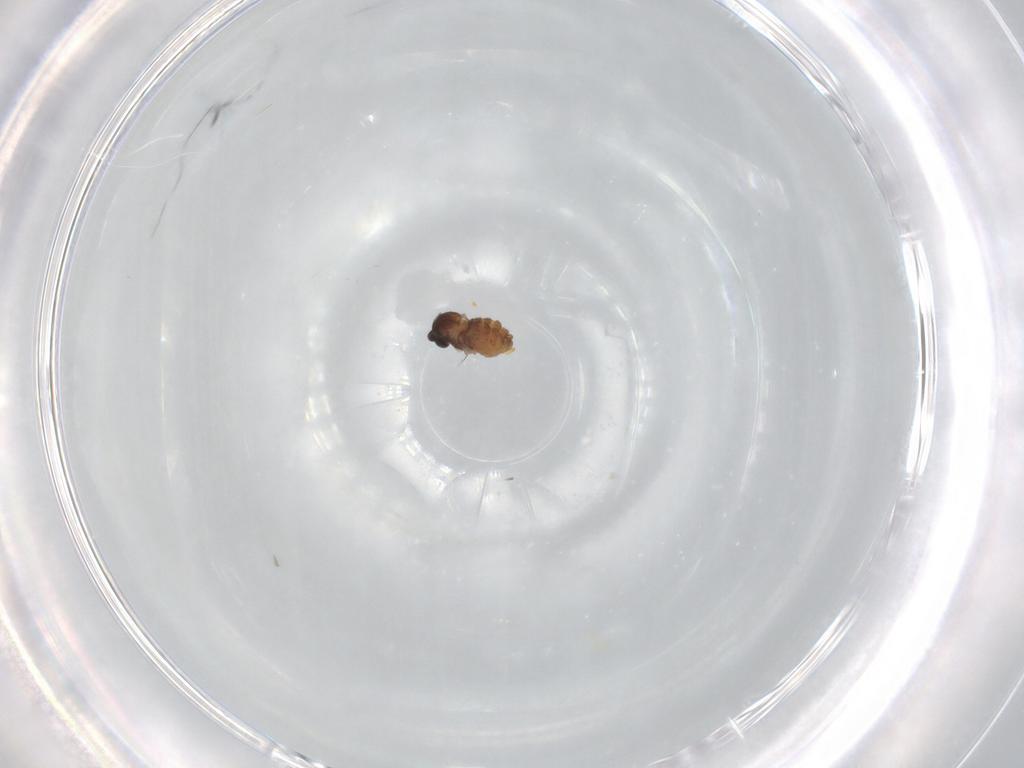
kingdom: Animalia
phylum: Arthropoda
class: Insecta
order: Diptera
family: Cecidomyiidae
